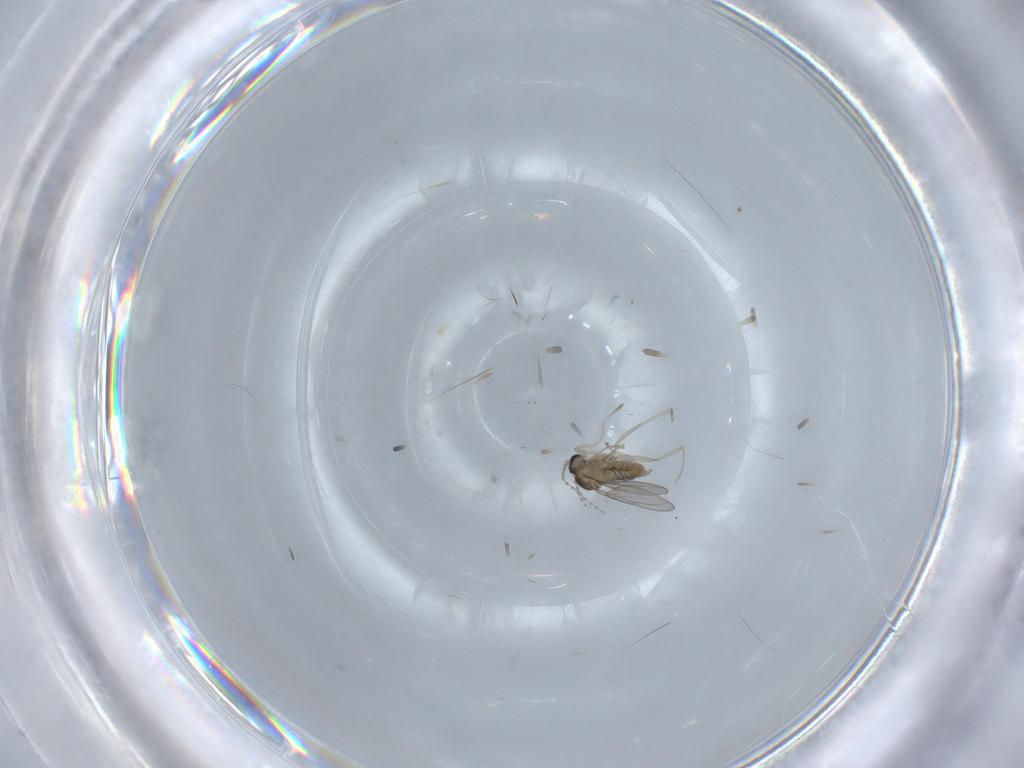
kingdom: Animalia
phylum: Arthropoda
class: Insecta
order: Diptera
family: Cecidomyiidae
